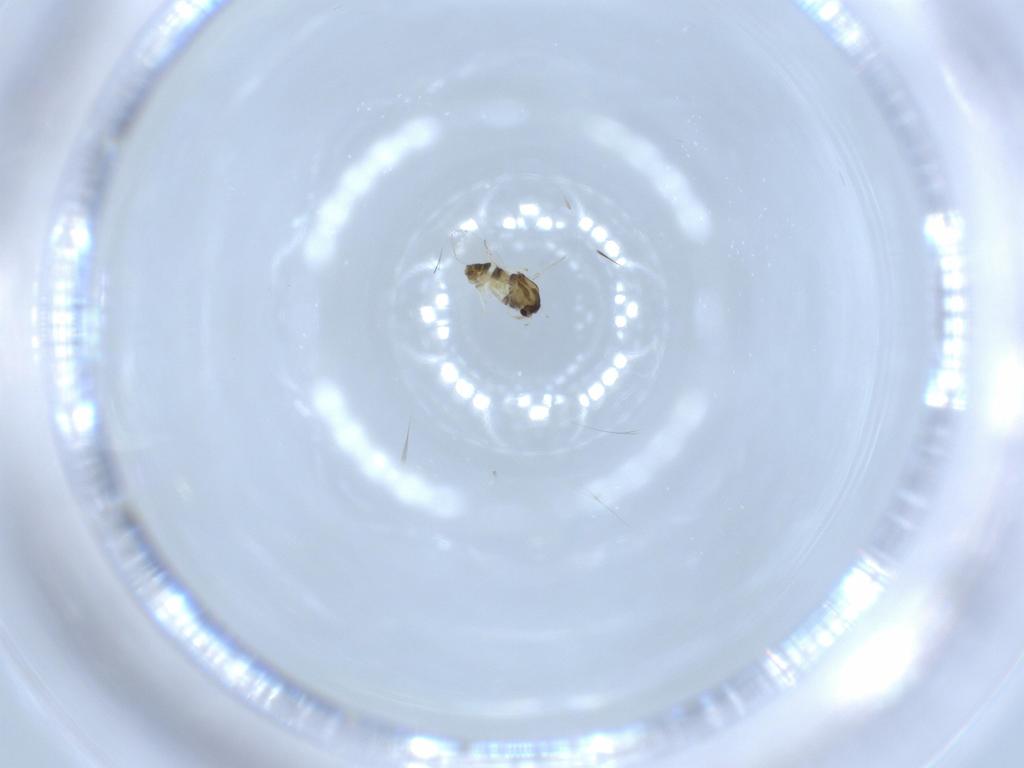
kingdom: Animalia
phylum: Arthropoda
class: Insecta
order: Diptera
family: Chironomidae
